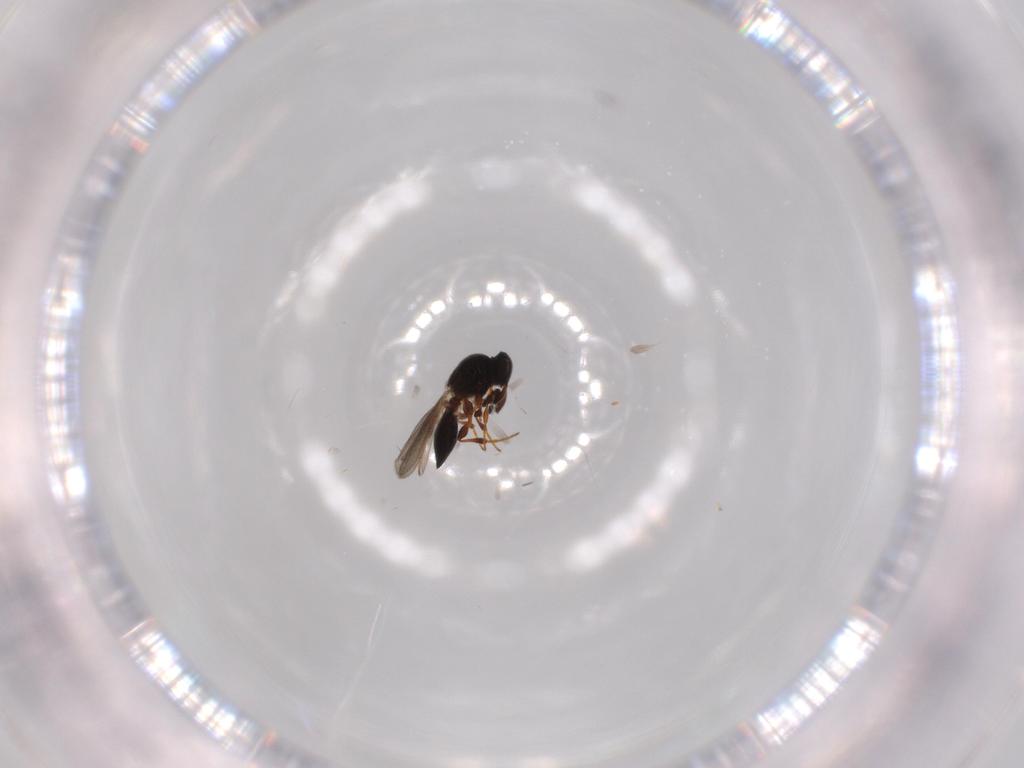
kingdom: Animalia
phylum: Arthropoda
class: Insecta
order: Hymenoptera
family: Platygastridae
